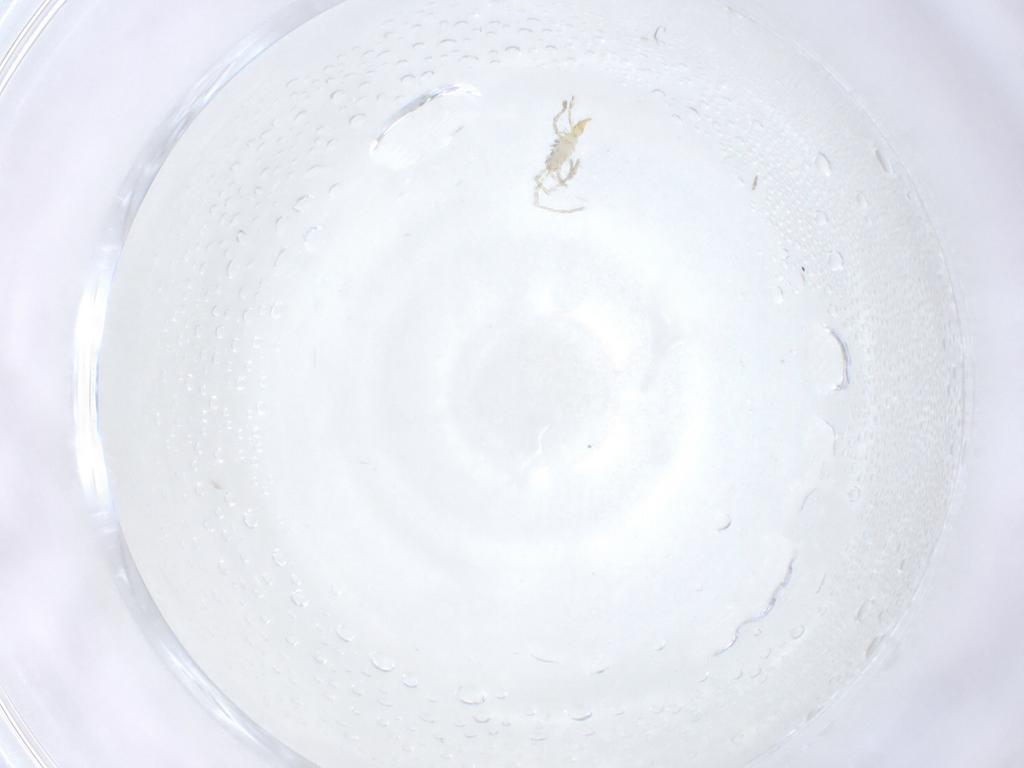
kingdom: Animalia
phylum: Arthropoda
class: Arachnida
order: Trombidiformes
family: Erythraeidae
